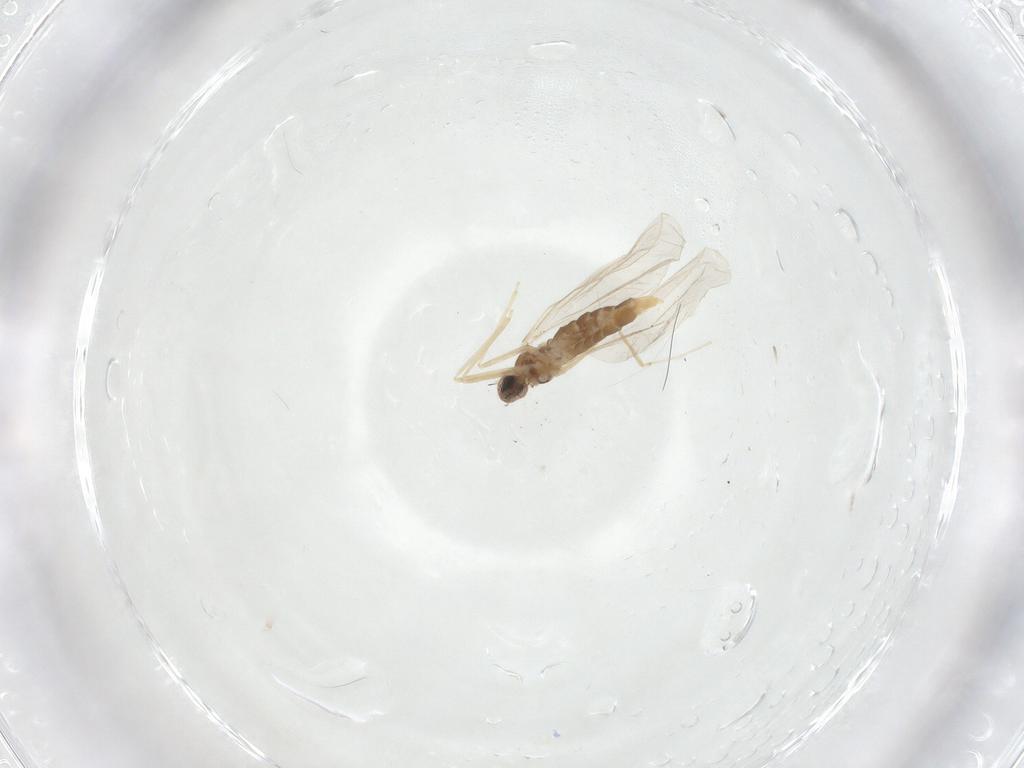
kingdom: Animalia
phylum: Arthropoda
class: Insecta
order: Diptera
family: Cecidomyiidae
